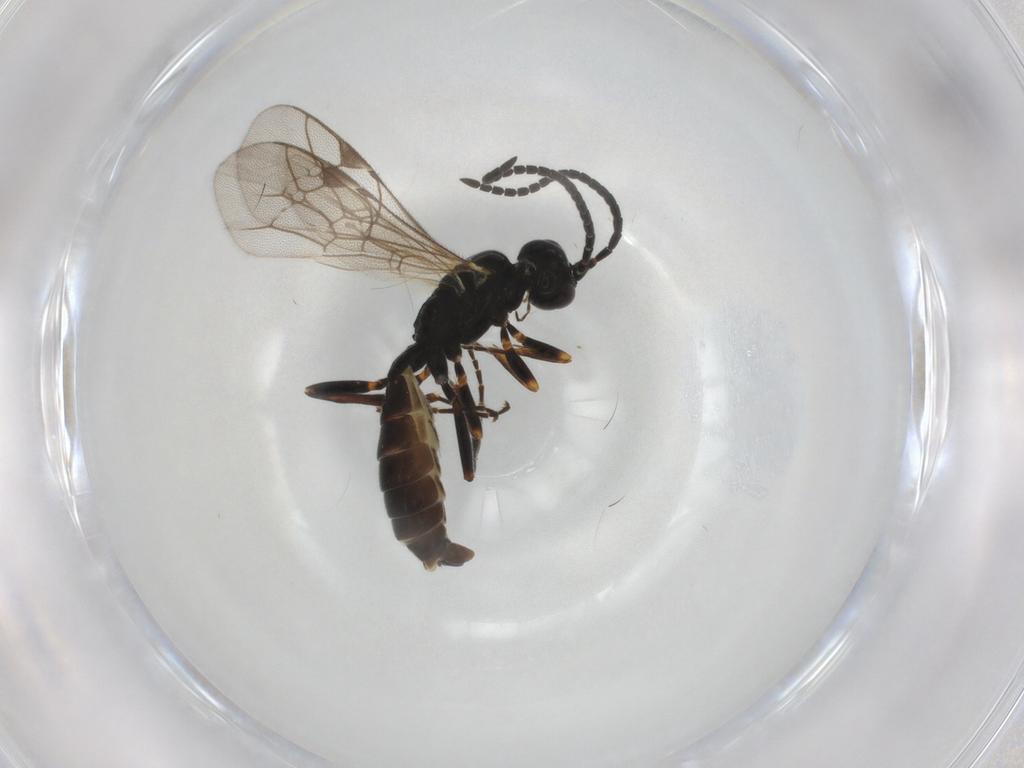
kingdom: Animalia
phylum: Arthropoda
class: Insecta
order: Hymenoptera
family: Ichneumonidae
